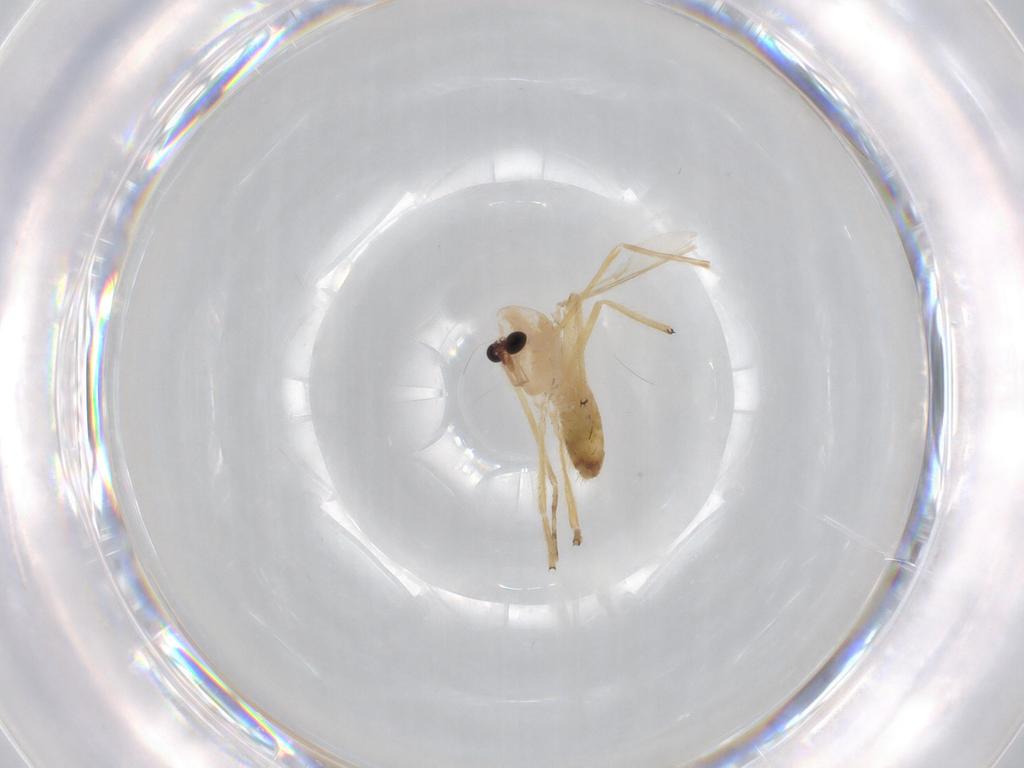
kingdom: Animalia
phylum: Arthropoda
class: Insecta
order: Diptera
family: Chironomidae
